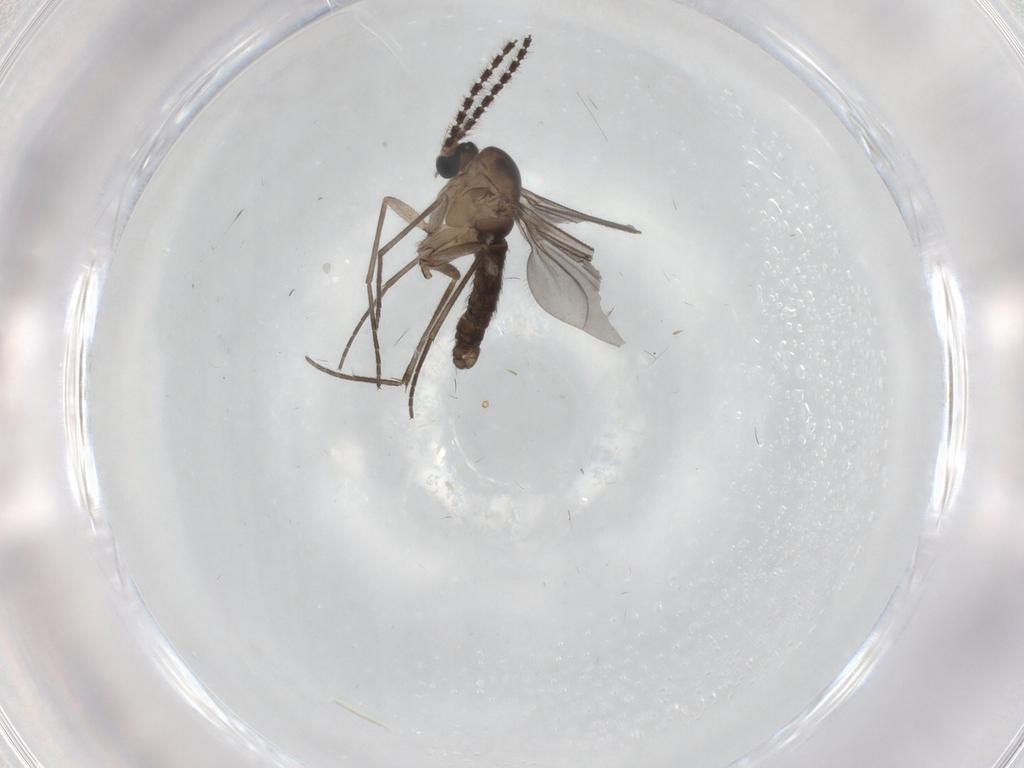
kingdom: Animalia
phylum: Arthropoda
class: Insecta
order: Diptera
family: Sciaridae
